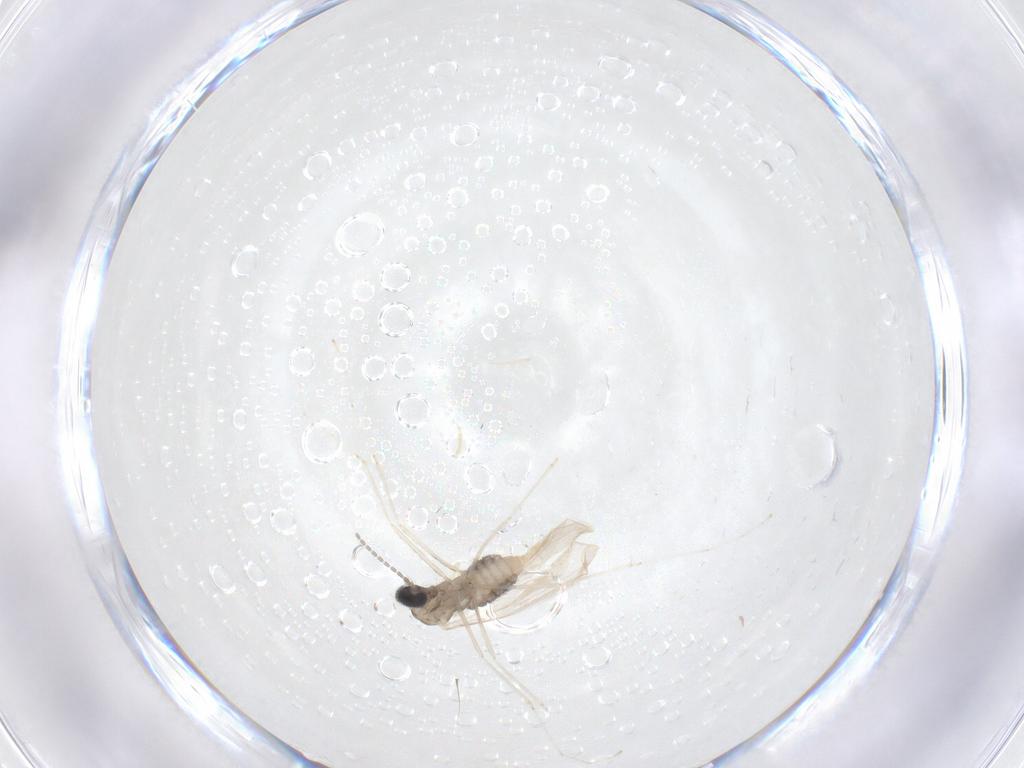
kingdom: Animalia
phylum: Arthropoda
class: Insecta
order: Diptera
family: Cecidomyiidae
